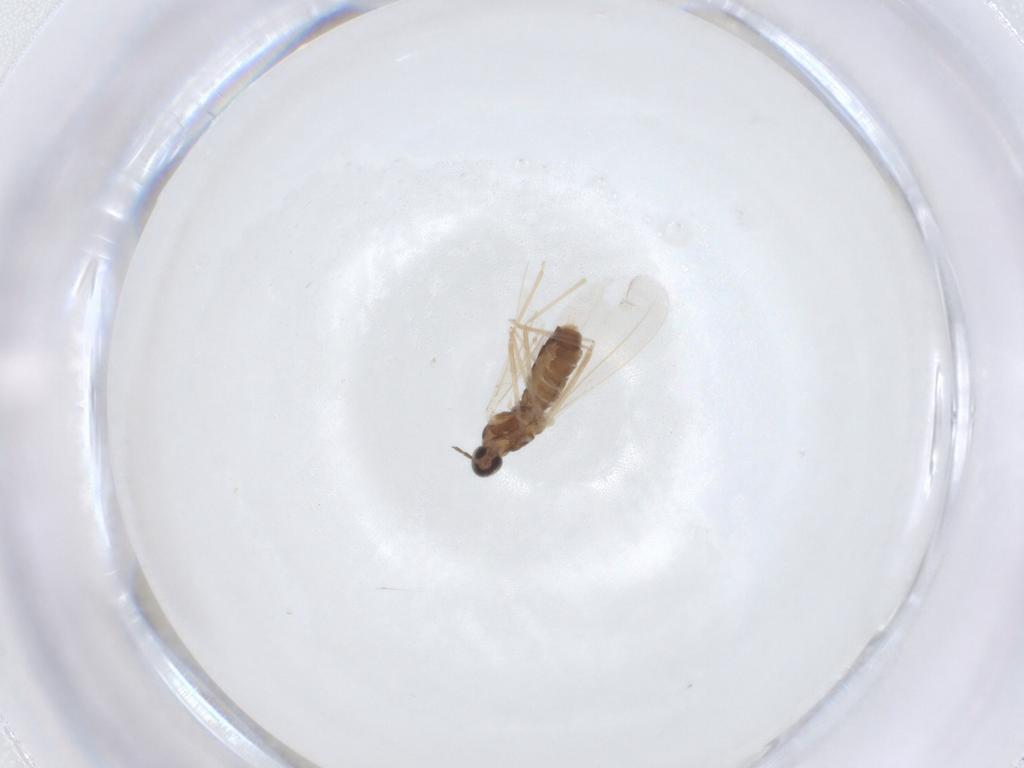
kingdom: Animalia
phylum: Arthropoda
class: Insecta
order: Diptera
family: Cecidomyiidae
